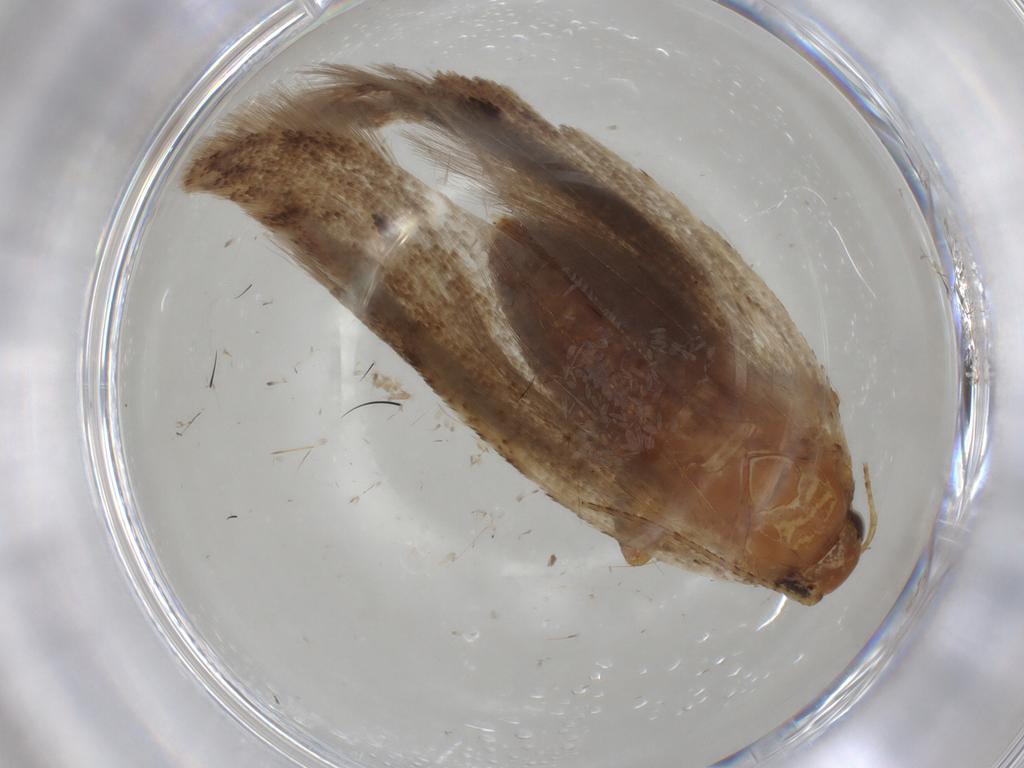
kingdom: Animalia
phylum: Arthropoda
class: Insecta
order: Lepidoptera
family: Gelechiidae
